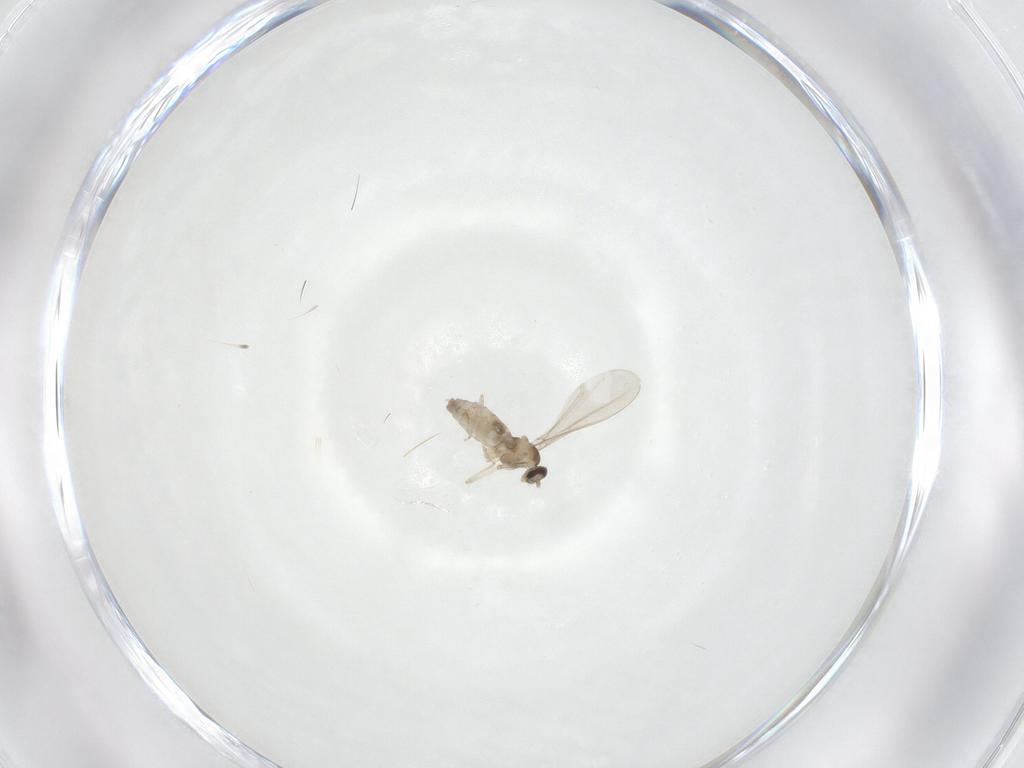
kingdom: Animalia
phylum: Arthropoda
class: Insecta
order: Diptera
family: Cecidomyiidae
